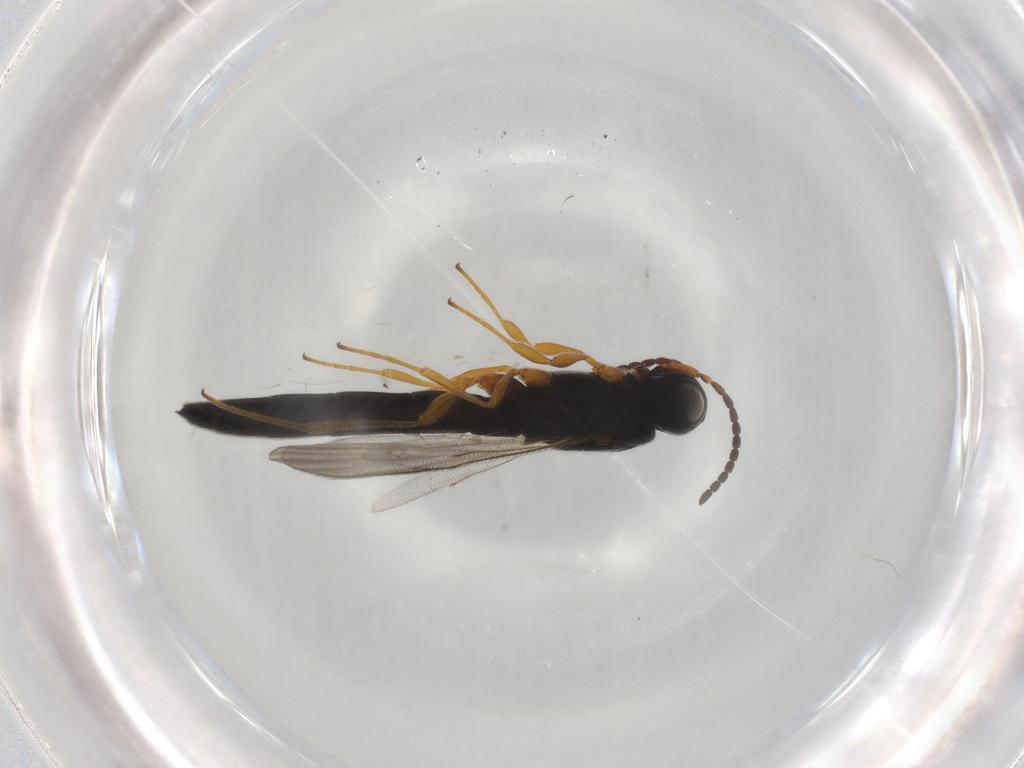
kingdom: Animalia
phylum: Arthropoda
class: Insecta
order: Hymenoptera
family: Scelionidae
